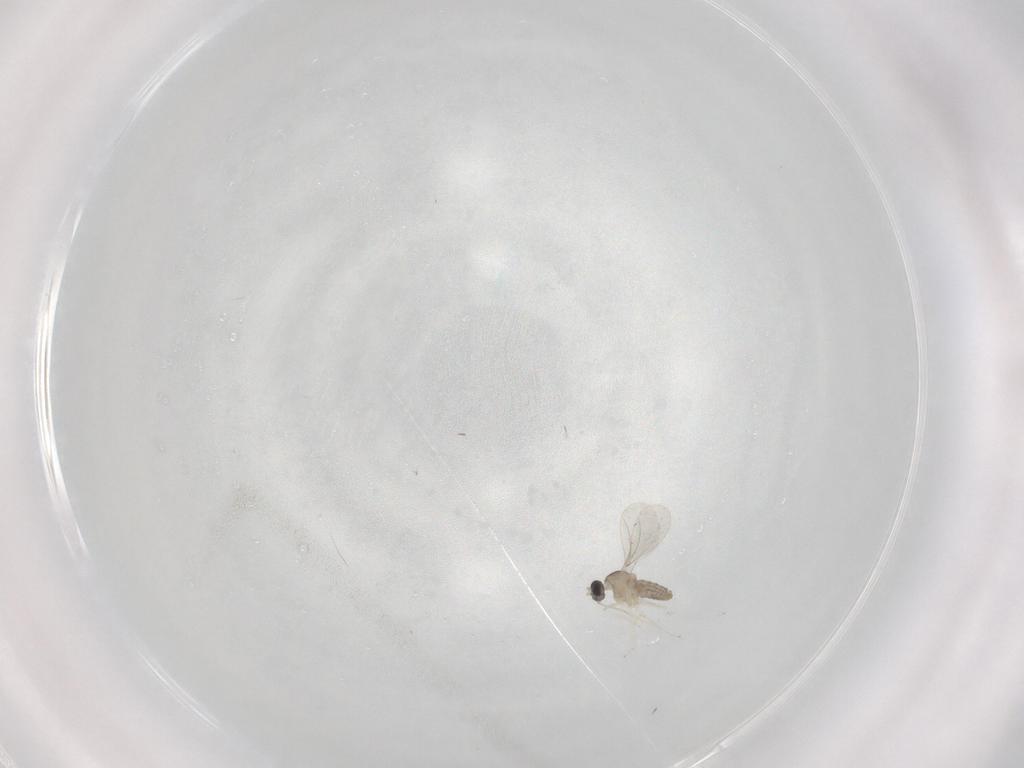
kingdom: Animalia
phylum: Arthropoda
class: Insecta
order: Diptera
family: Cecidomyiidae
